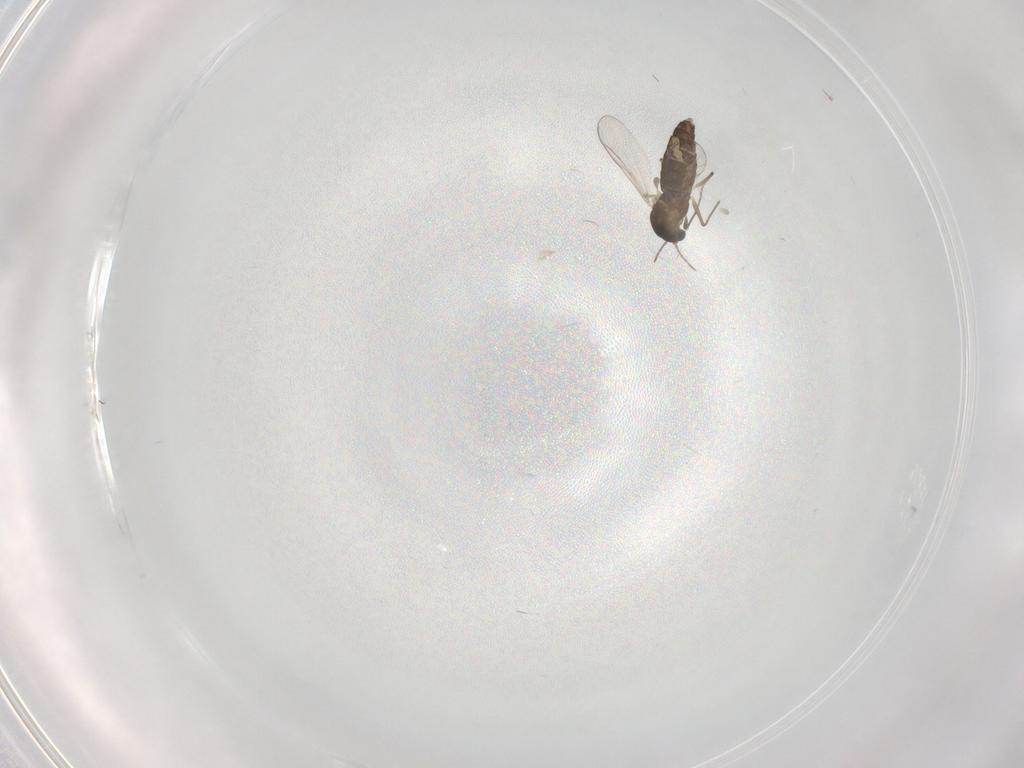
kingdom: Animalia
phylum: Arthropoda
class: Insecta
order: Diptera
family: Chironomidae
